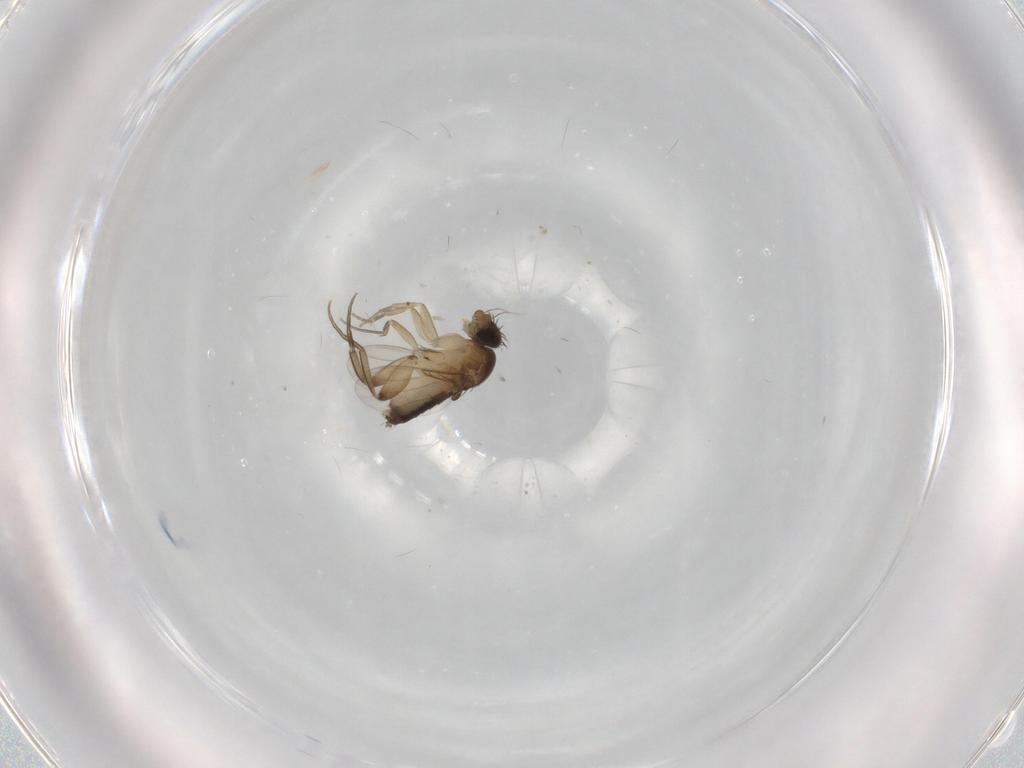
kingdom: Animalia
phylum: Arthropoda
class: Insecta
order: Diptera
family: Phoridae
